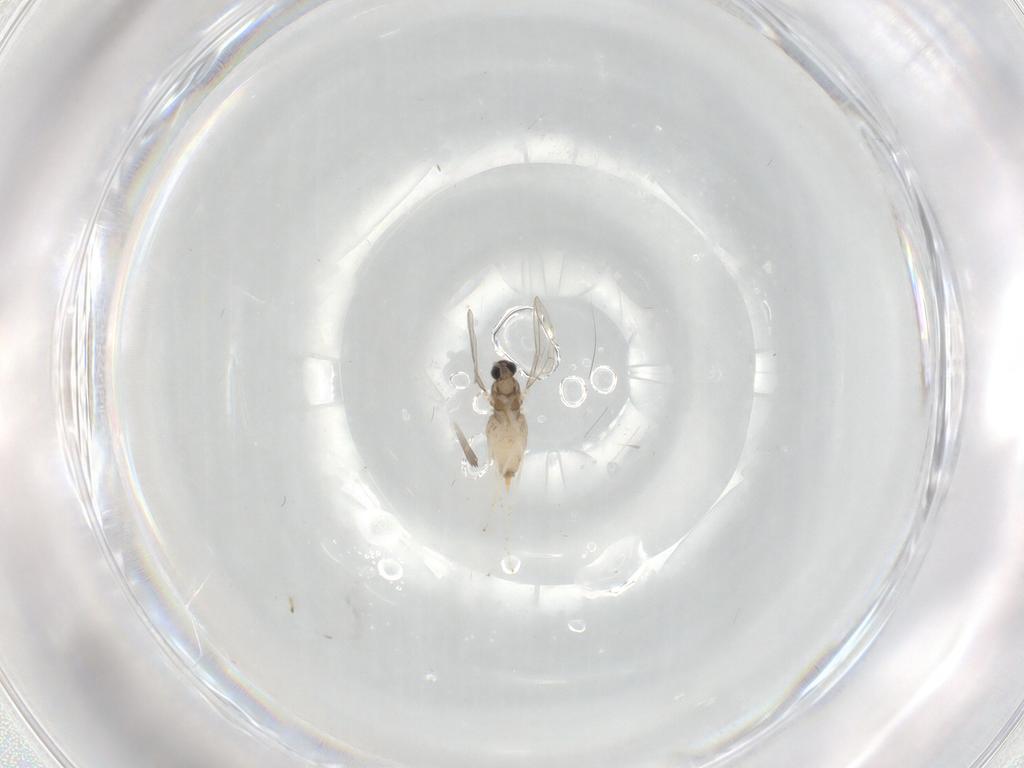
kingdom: Animalia
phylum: Arthropoda
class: Insecta
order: Diptera
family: Cecidomyiidae
